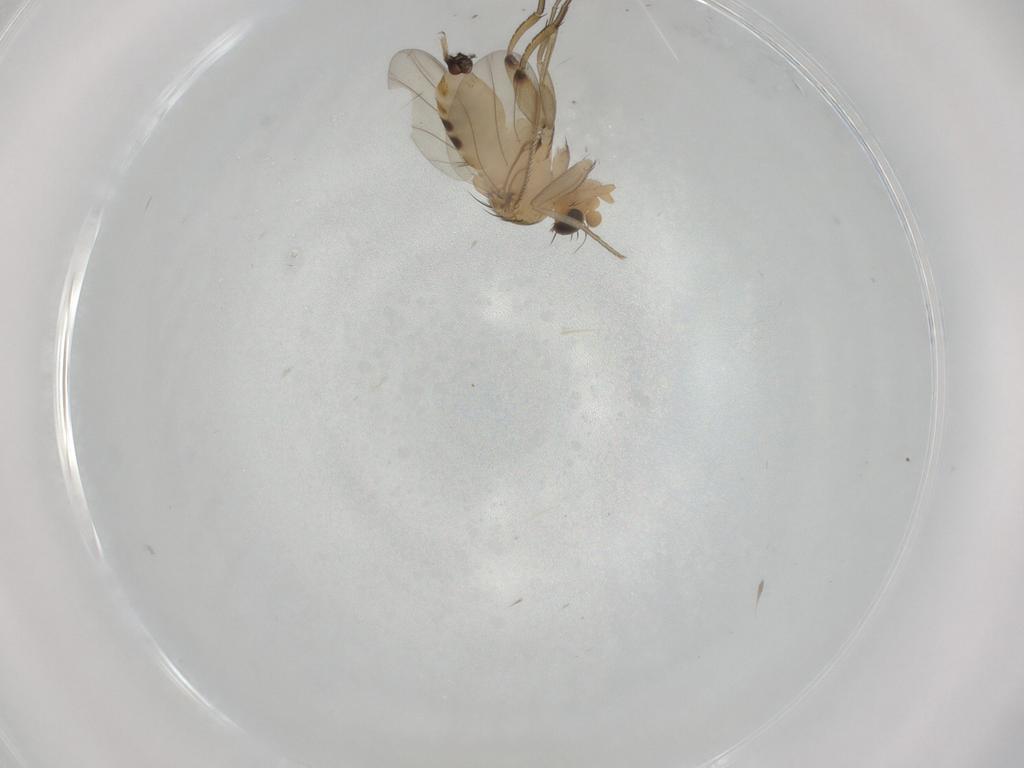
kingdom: Animalia
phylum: Arthropoda
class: Insecta
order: Diptera
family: Phoridae
